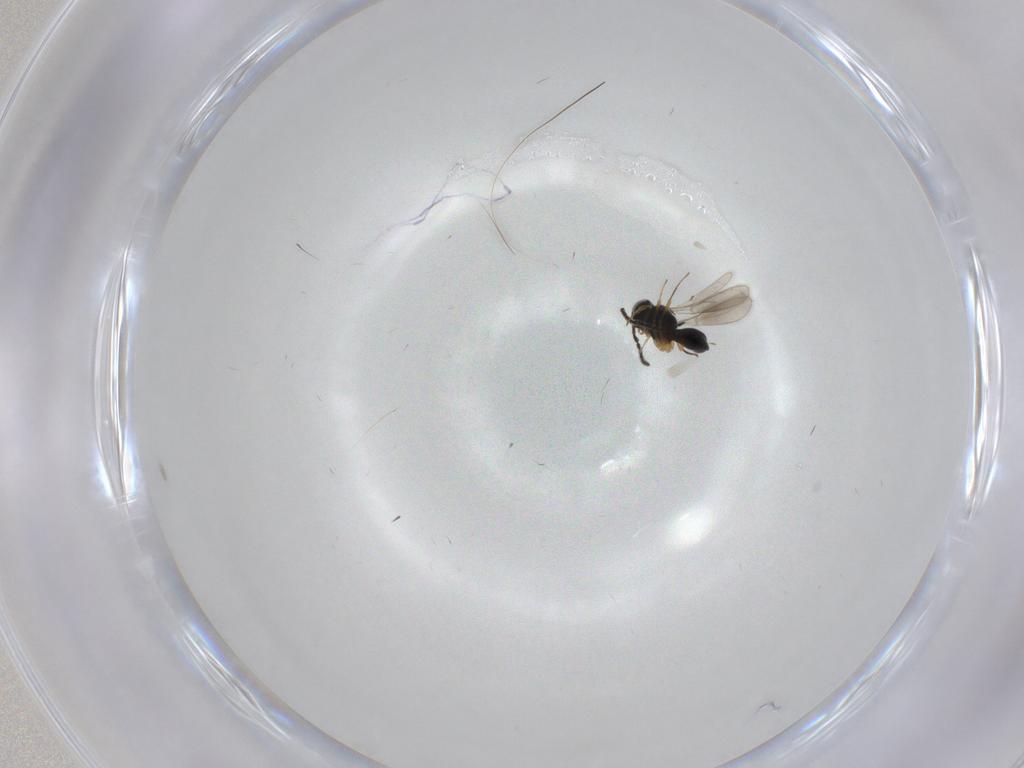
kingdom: Animalia
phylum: Arthropoda
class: Insecta
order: Hymenoptera
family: Scelionidae
